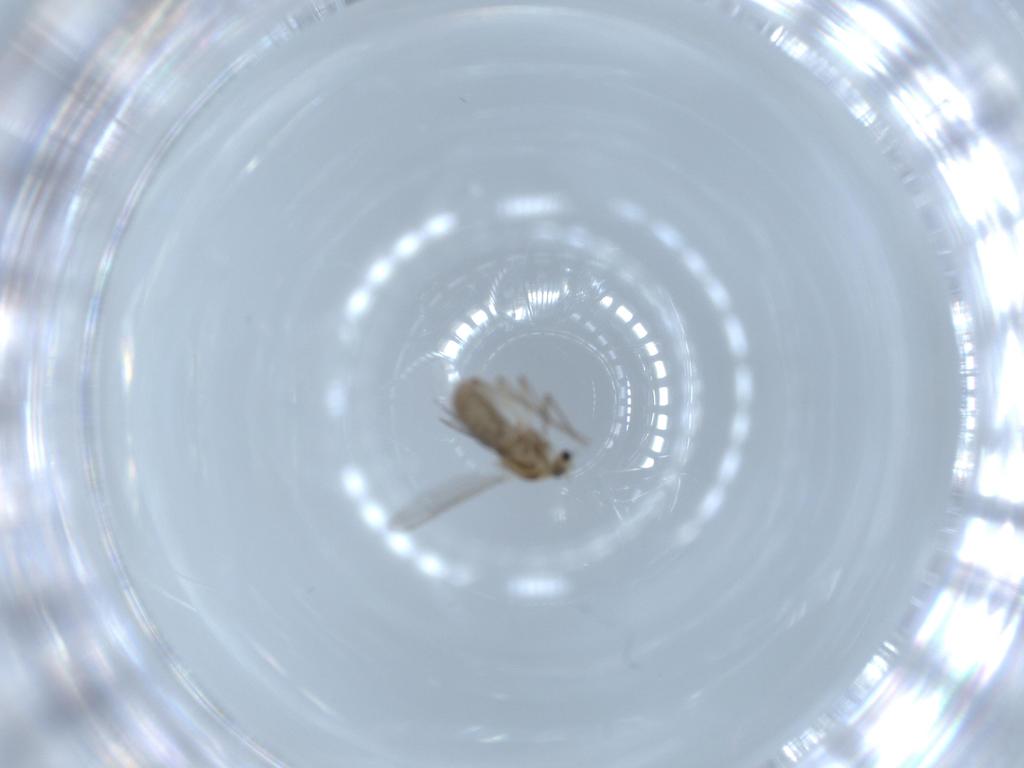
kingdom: Animalia
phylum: Arthropoda
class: Insecta
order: Diptera
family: Chironomidae
